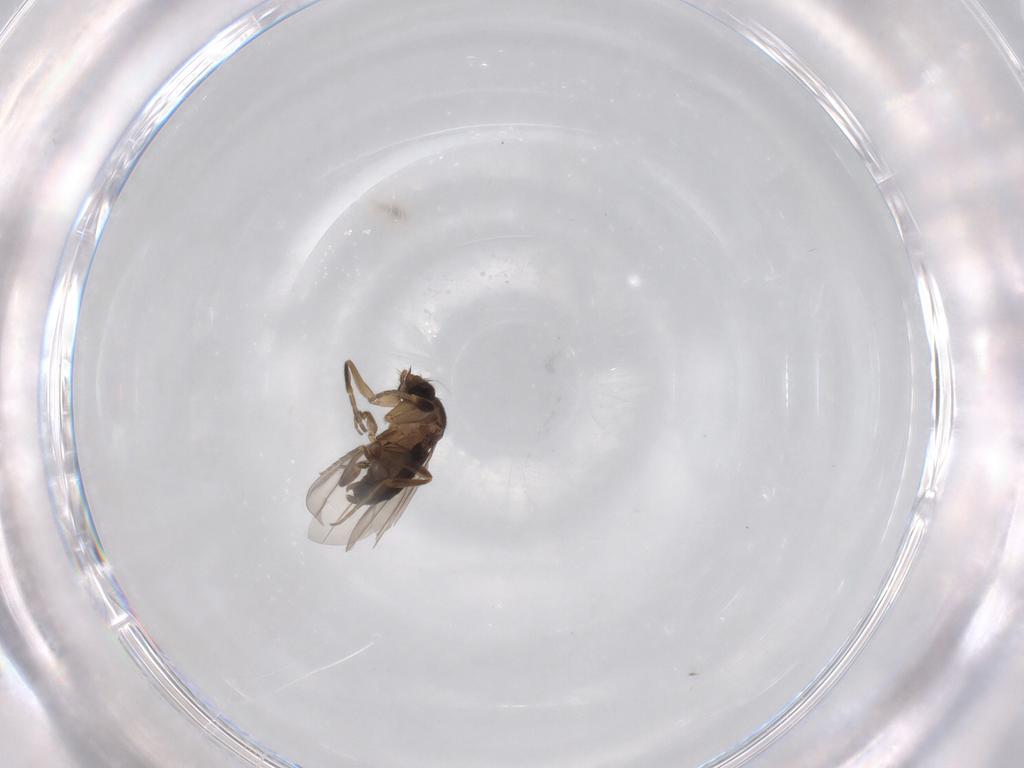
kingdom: Animalia
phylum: Arthropoda
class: Insecta
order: Diptera
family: Phoridae
